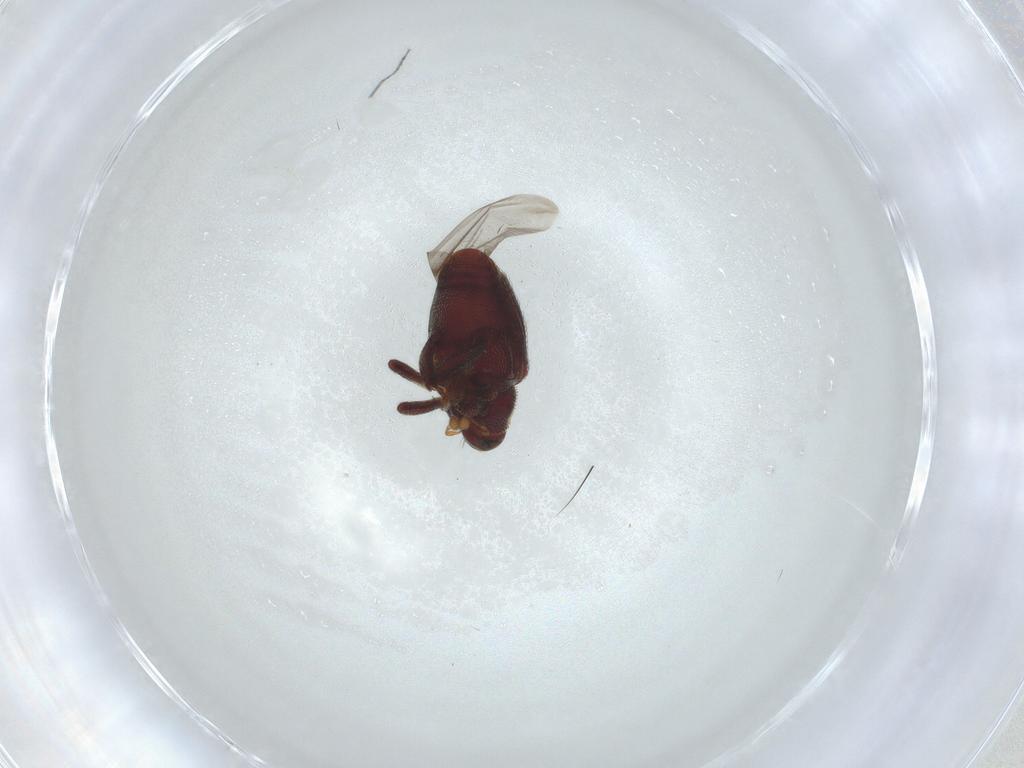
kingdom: Animalia
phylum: Arthropoda
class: Insecta
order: Coleoptera
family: Curculionidae
